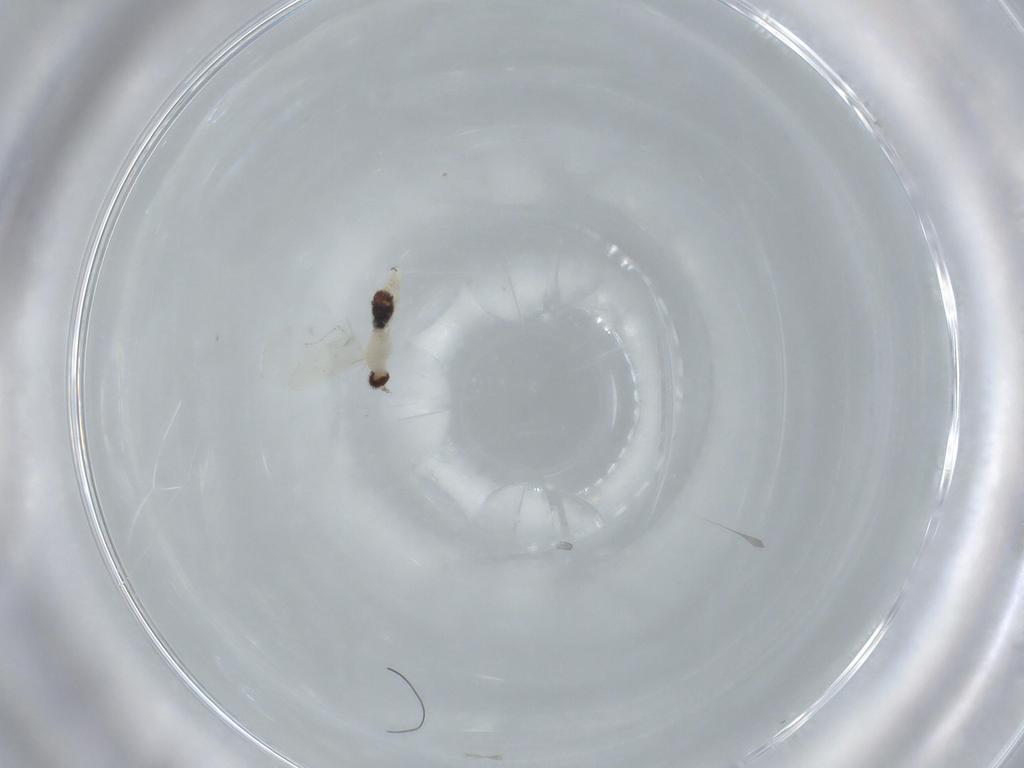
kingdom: Animalia
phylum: Arthropoda
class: Insecta
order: Diptera
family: Cecidomyiidae
